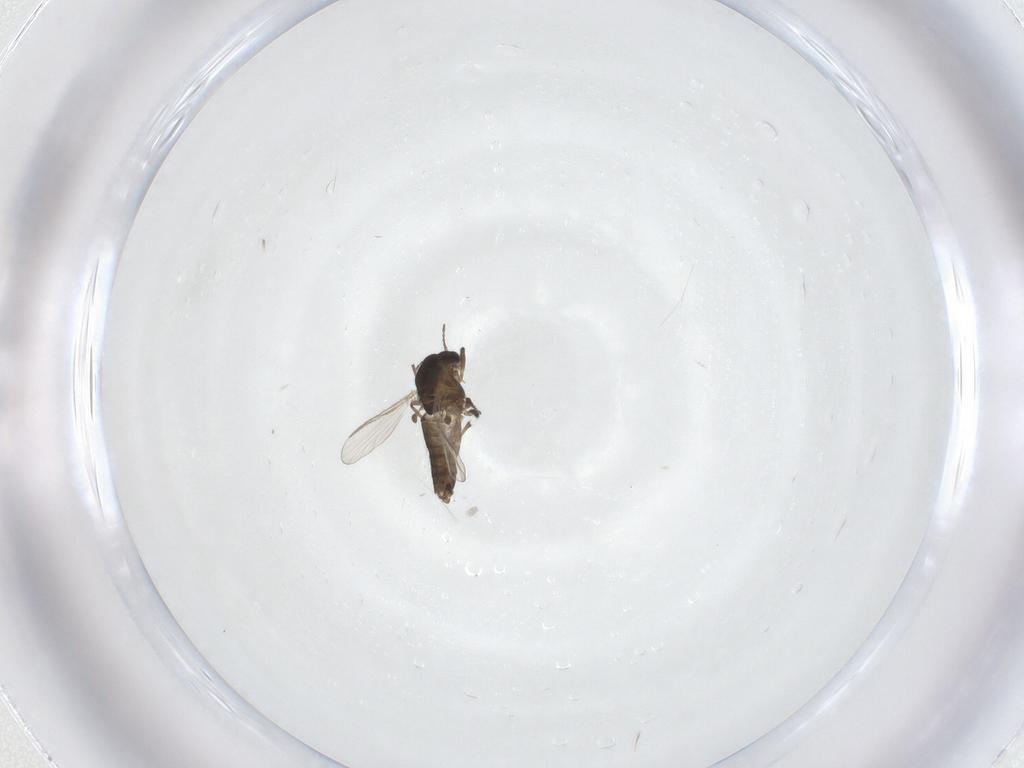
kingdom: Animalia
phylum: Arthropoda
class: Insecta
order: Diptera
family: Chironomidae
